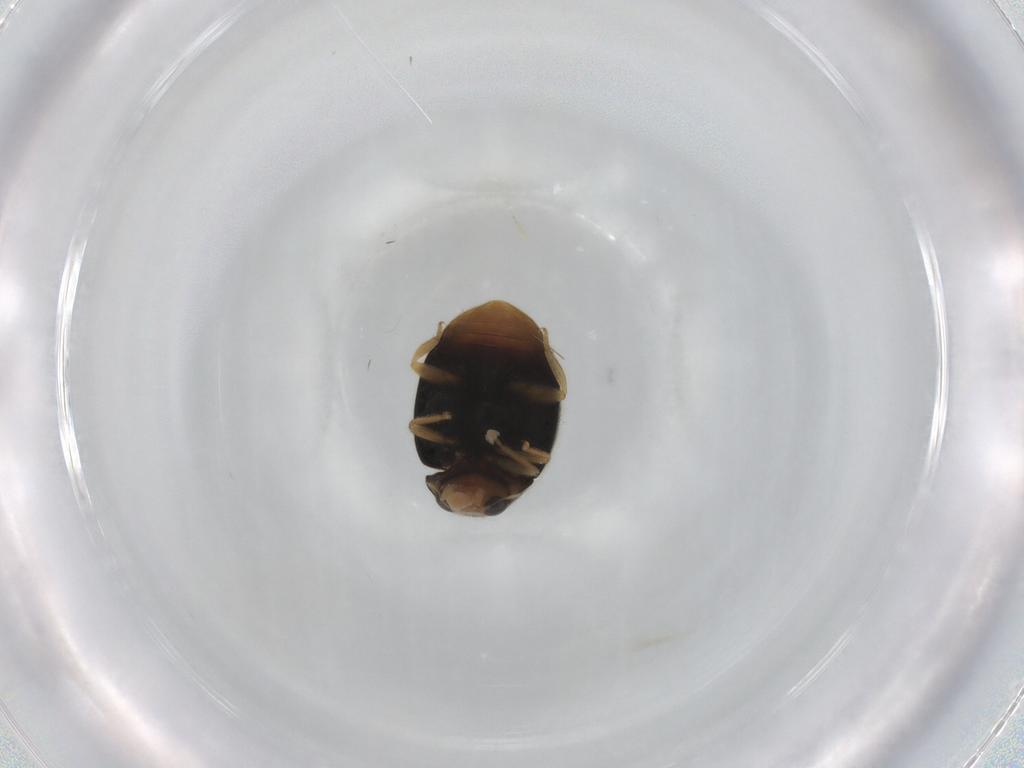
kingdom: Animalia
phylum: Arthropoda
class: Insecta
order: Coleoptera
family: Coccinellidae
